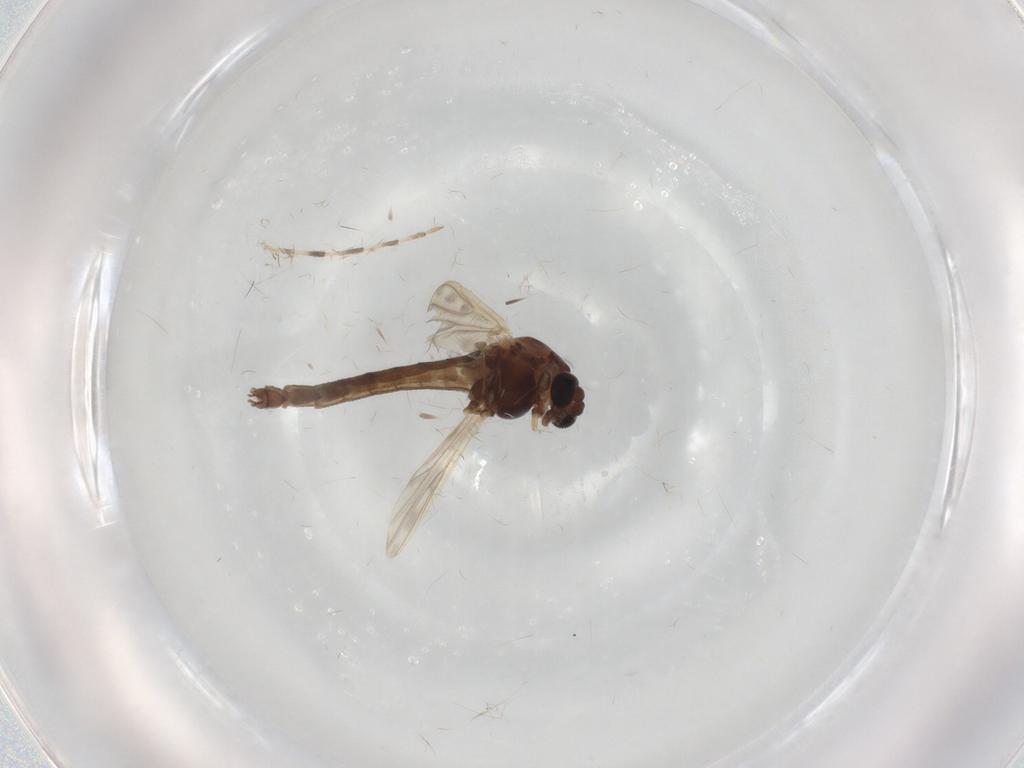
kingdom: Animalia
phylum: Arthropoda
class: Insecta
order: Diptera
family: Chironomidae
